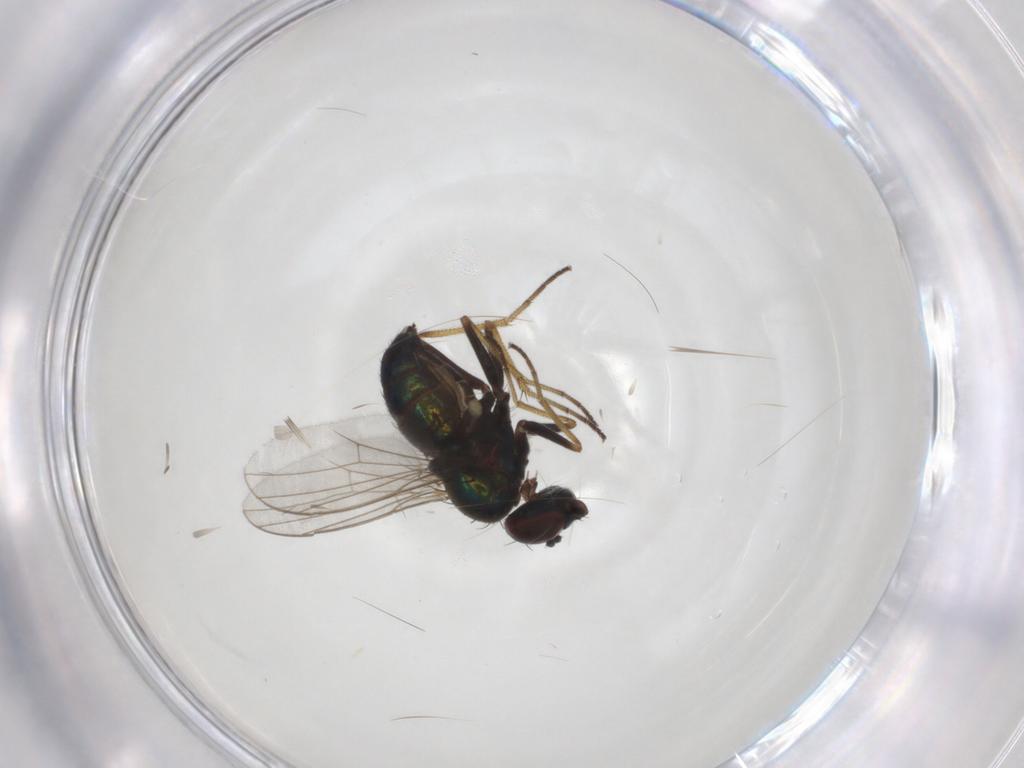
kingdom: Animalia
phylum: Arthropoda
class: Insecta
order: Diptera
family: Dolichopodidae
